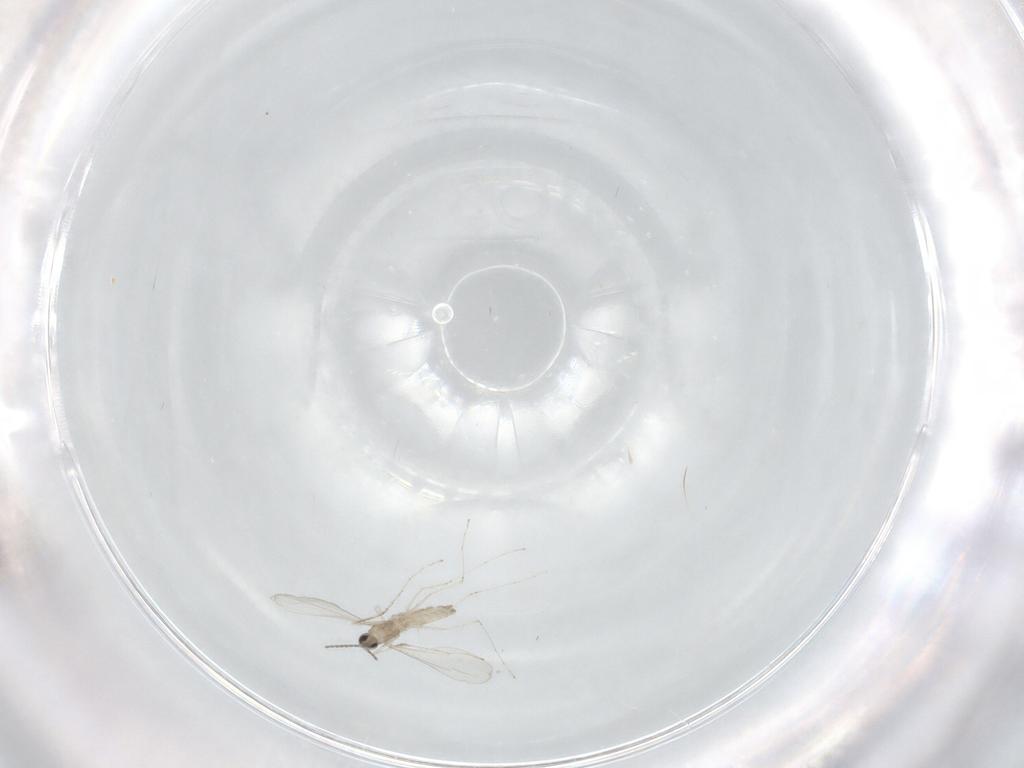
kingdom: Animalia
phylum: Arthropoda
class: Insecta
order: Diptera
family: Cecidomyiidae
